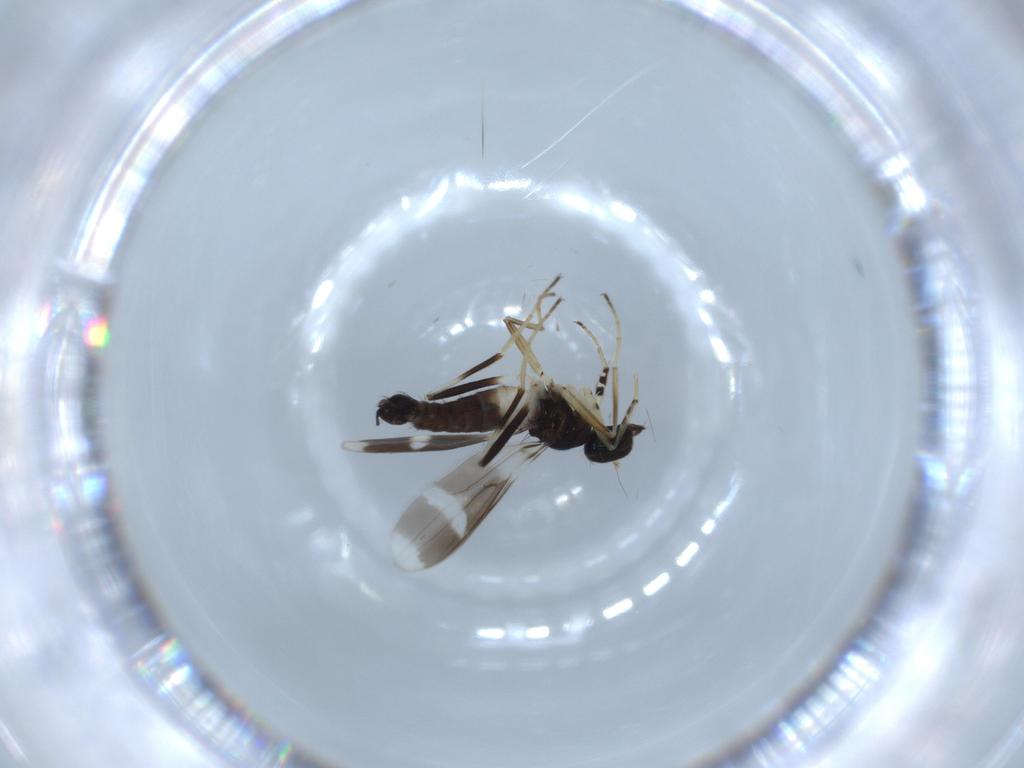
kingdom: Animalia
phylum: Arthropoda
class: Insecta
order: Diptera
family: Hybotidae
